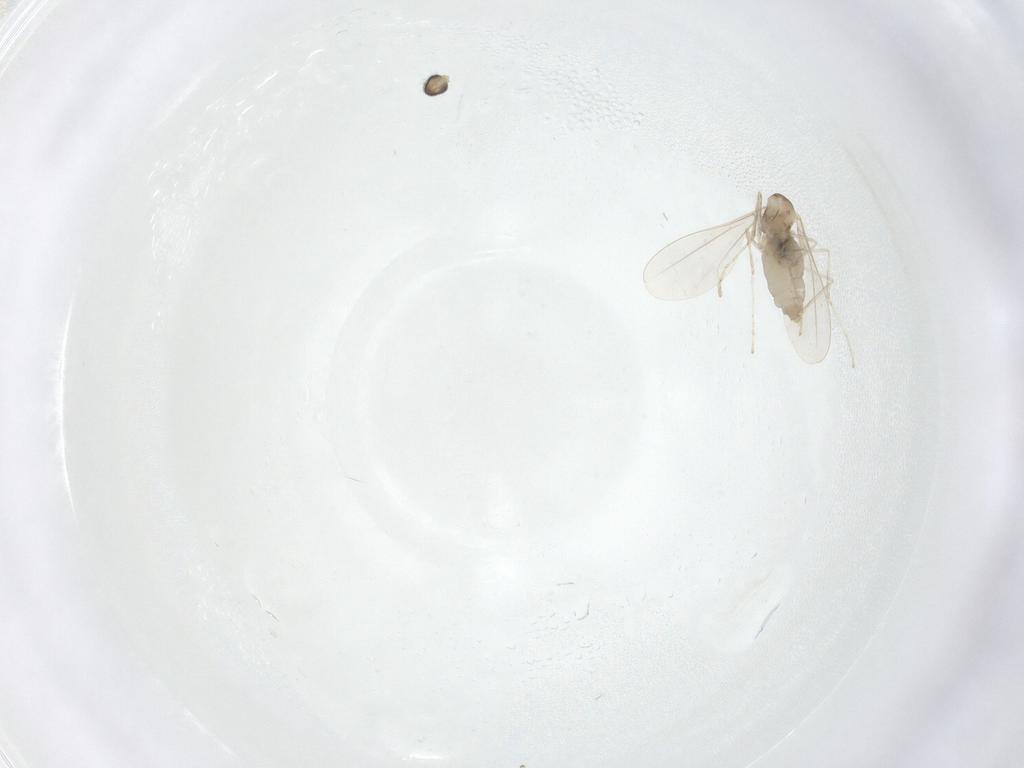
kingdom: Animalia
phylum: Arthropoda
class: Insecta
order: Diptera
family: Cecidomyiidae
